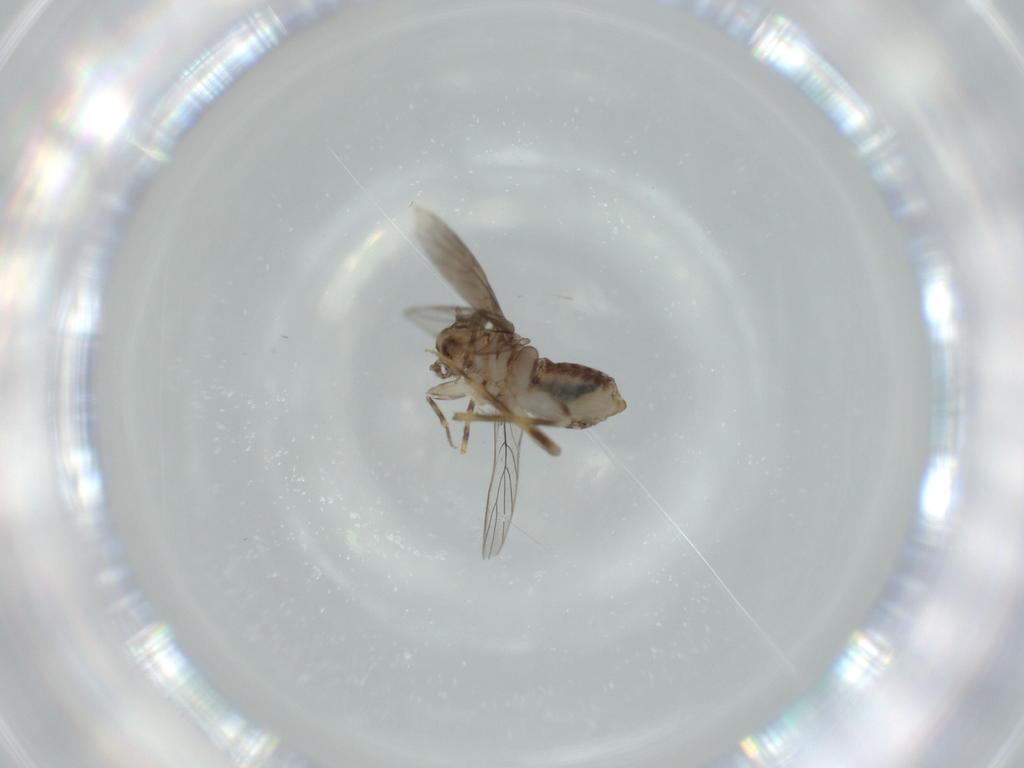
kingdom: Animalia
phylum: Arthropoda
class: Insecta
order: Psocodea
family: Lepidopsocidae
